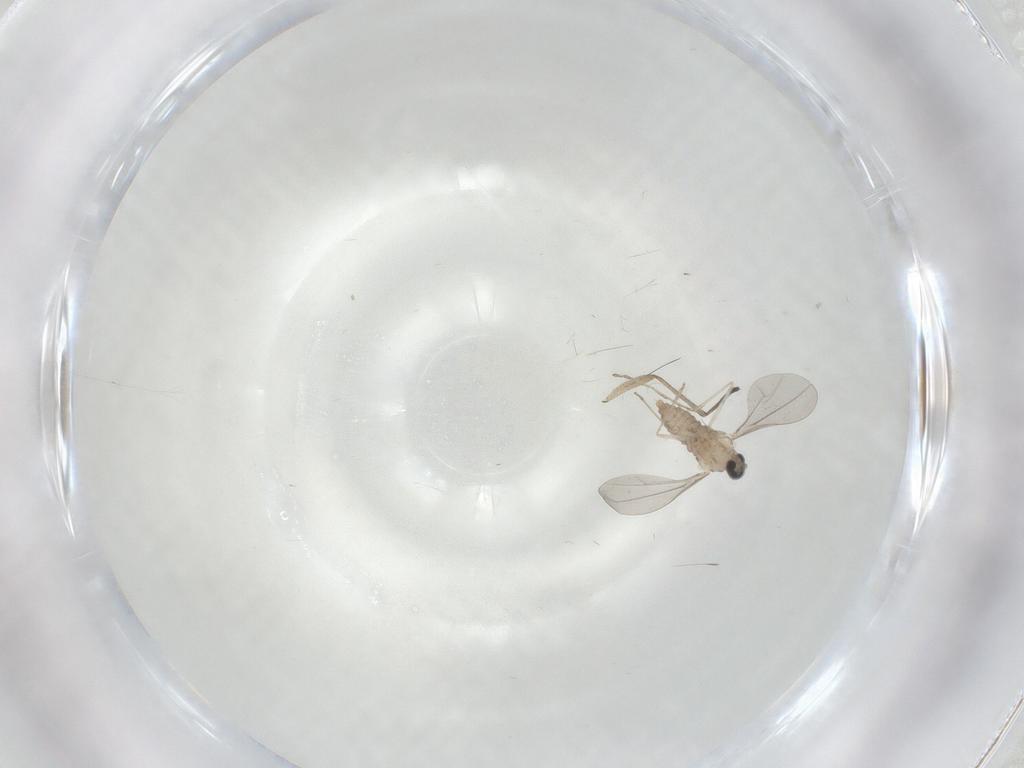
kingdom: Animalia
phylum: Arthropoda
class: Insecta
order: Diptera
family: Cecidomyiidae
